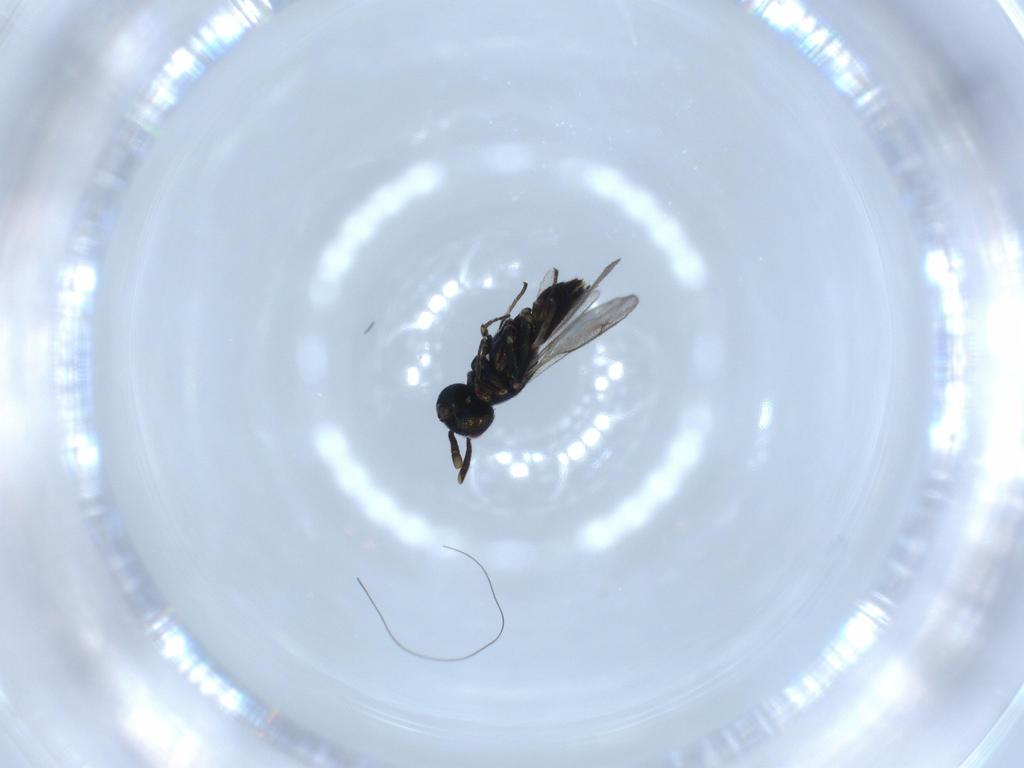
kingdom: Animalia
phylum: Arthropoda
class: Insecta
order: Hymenoptera
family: Eupelmidae
